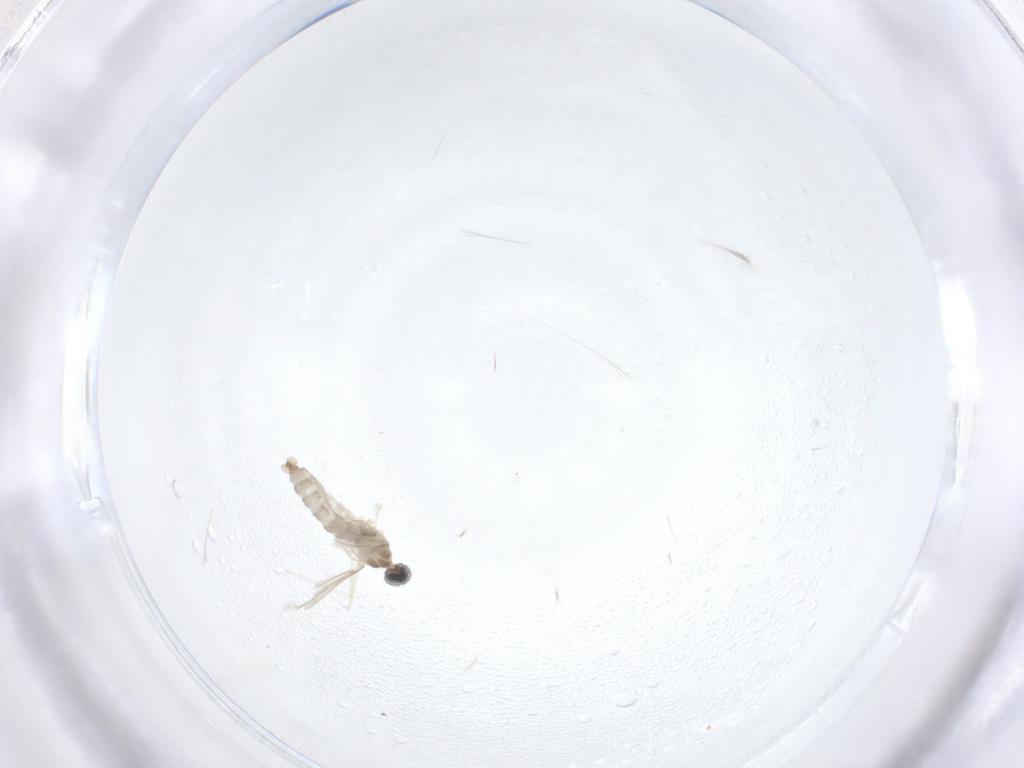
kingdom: Animalia
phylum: Arthropoda
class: Insecta
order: Diptera
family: Cecidomyiidae
